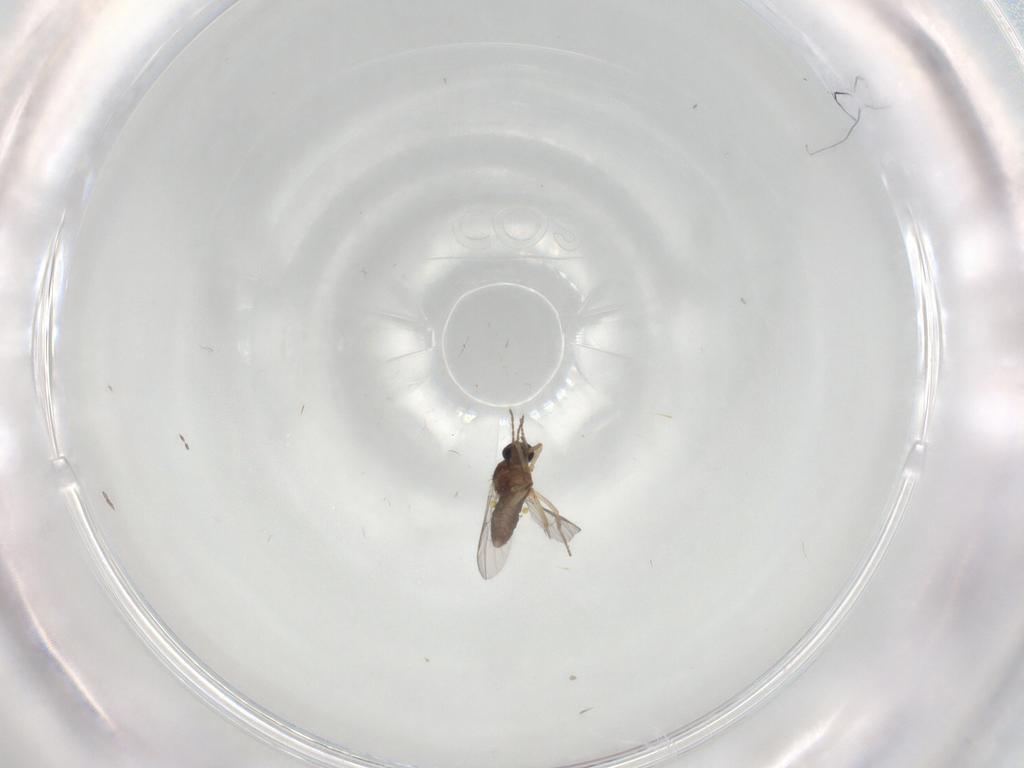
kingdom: Animalia
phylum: Arthropoda
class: Insecta
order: Diptera
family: Ceratopogonidae
